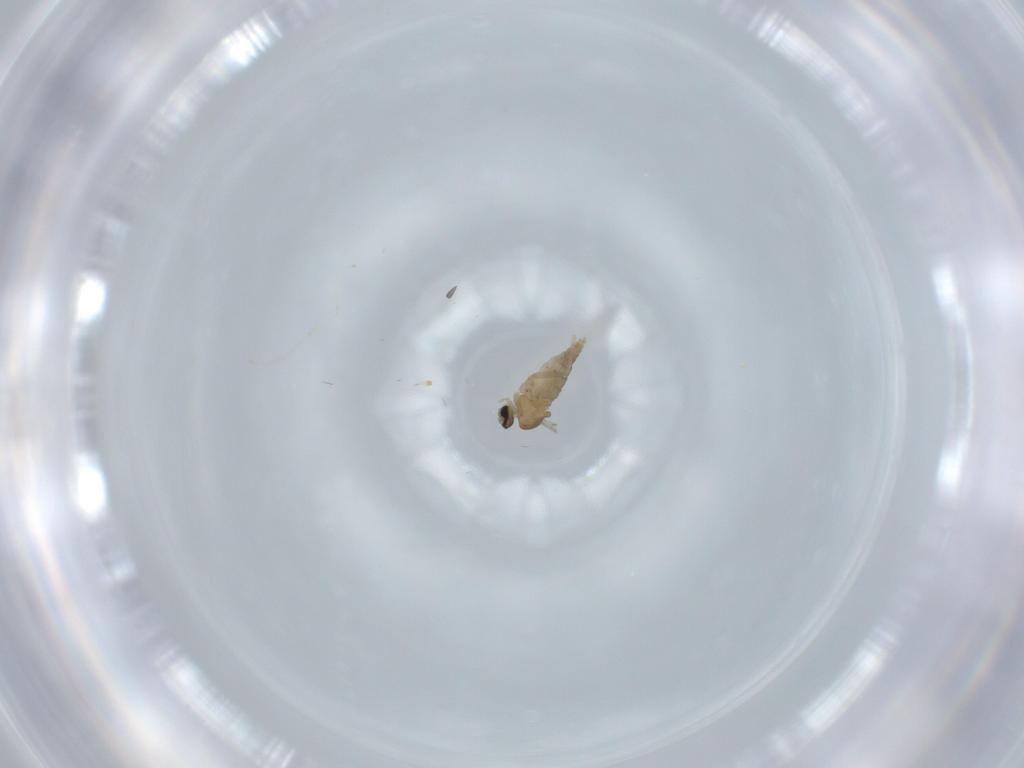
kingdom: Animalia
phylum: Arthropoda
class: Insecta
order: Diptera
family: Cecidomyiidae
